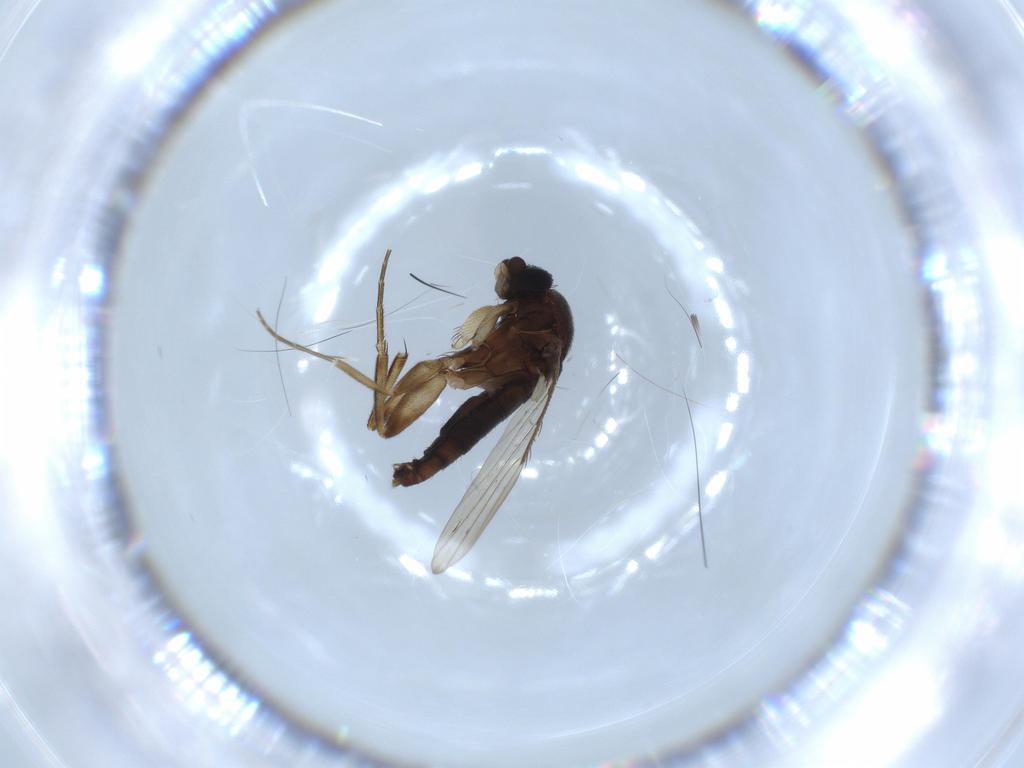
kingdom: Animalia
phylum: Arthropoda
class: Insecta
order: Diptera
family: Phoridae
